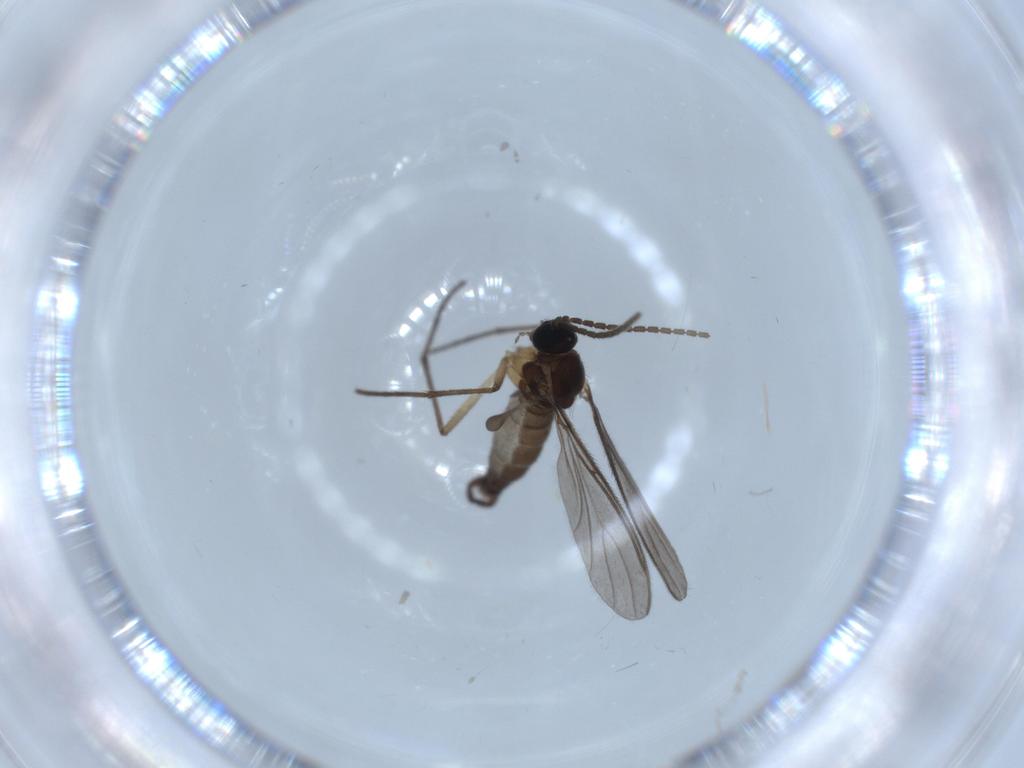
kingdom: Animalia
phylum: Arthropoda
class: Insecta
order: Diptera
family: Sciaridae
